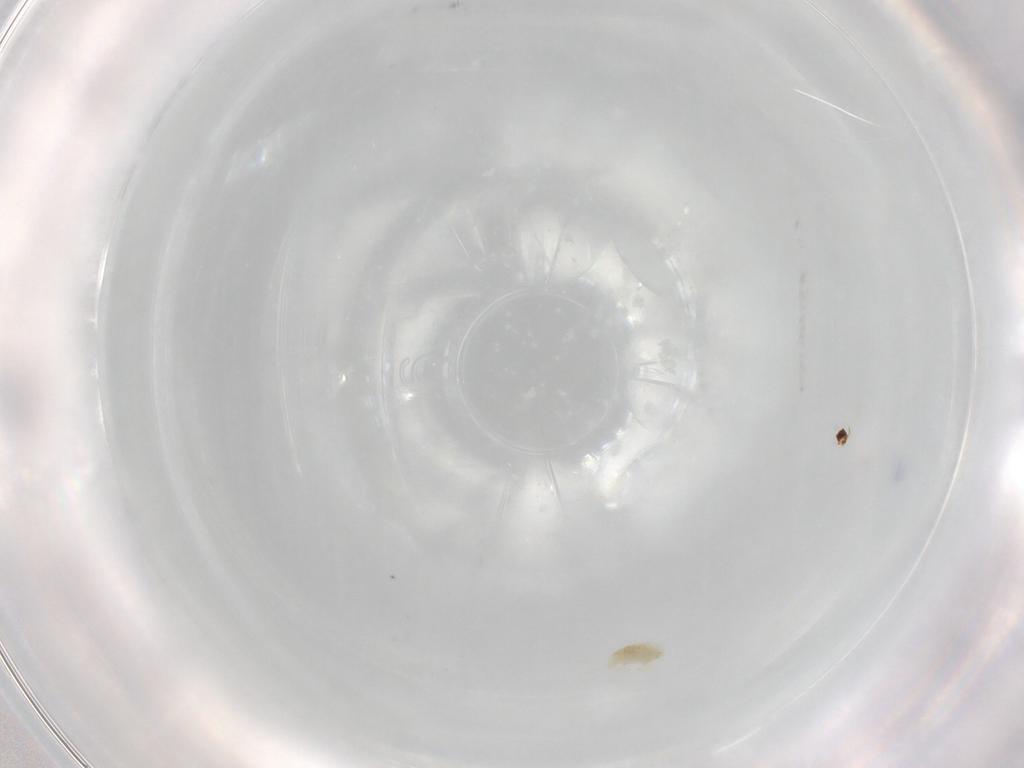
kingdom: Animalia
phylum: Arthropoda
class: Arachnida
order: Trombidiformes
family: Eupodidae
